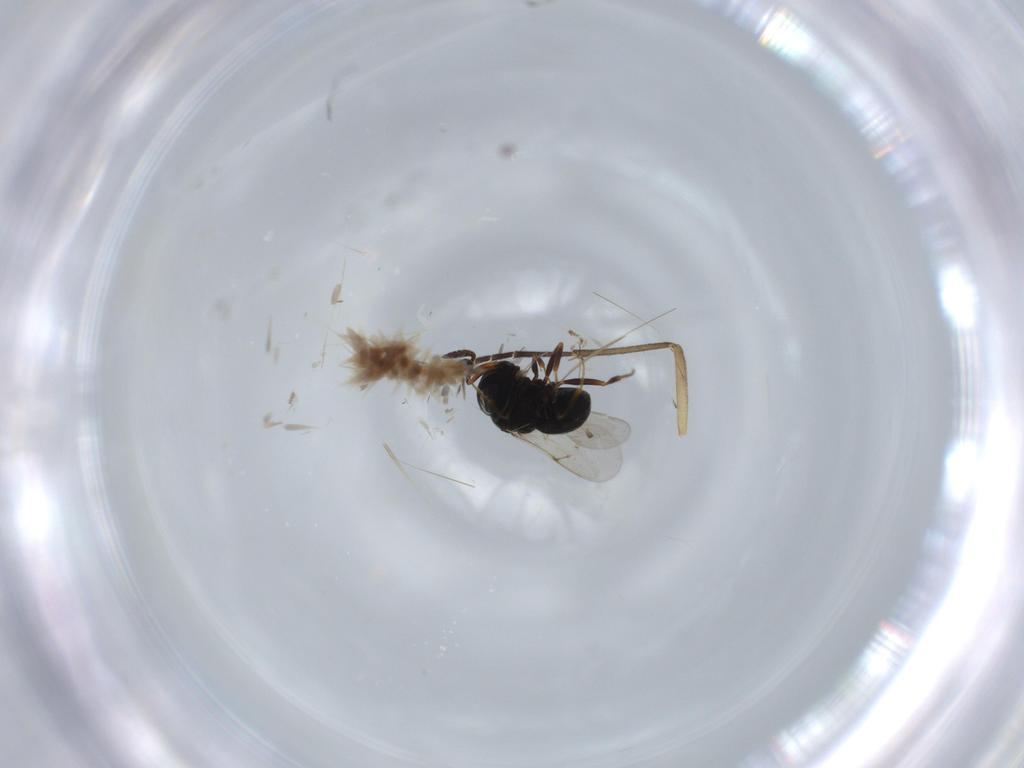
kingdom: Animalia
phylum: Arthropoda
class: Insecta
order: Hymenoptera
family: Scelionidae
